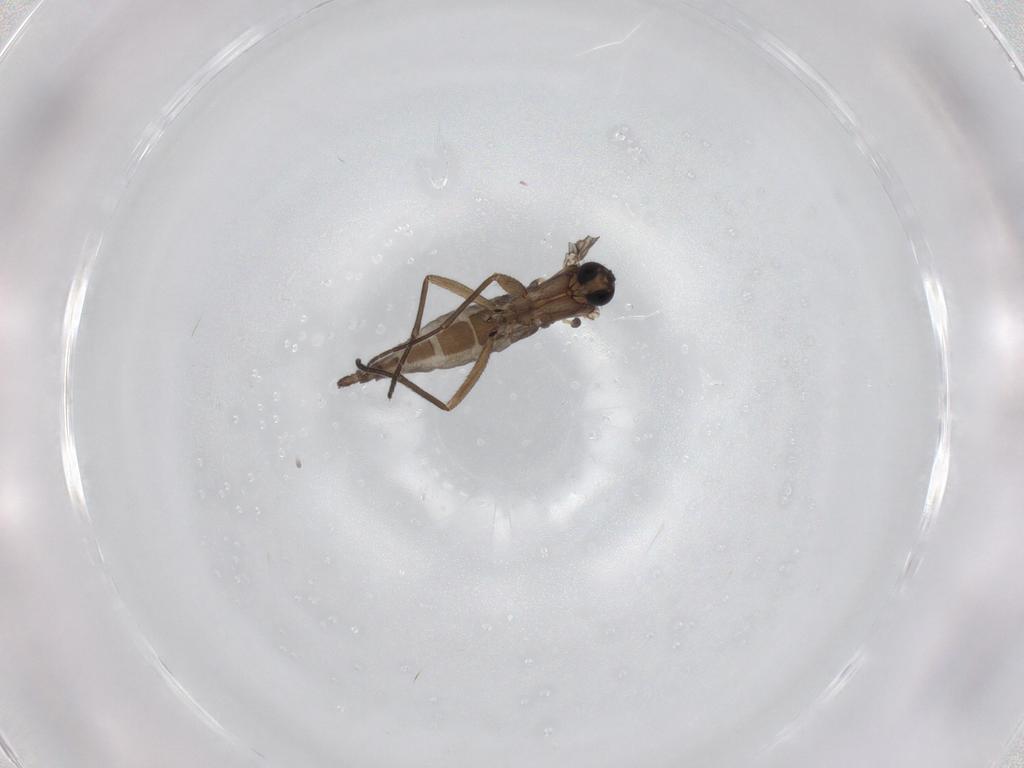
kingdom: Animalia
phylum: Arthropoda
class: Insecta
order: Diptera
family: Sciaridae
